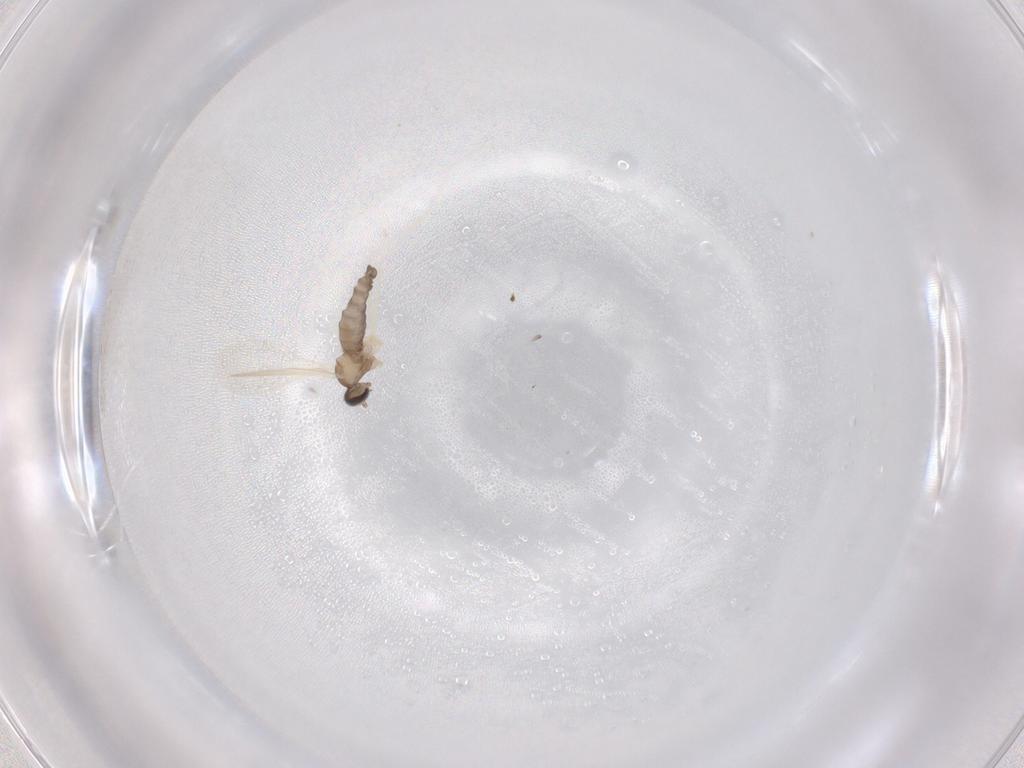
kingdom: Animalia
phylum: Arthropoda
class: Insecta
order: Diptera
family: Cecidomyiidae
